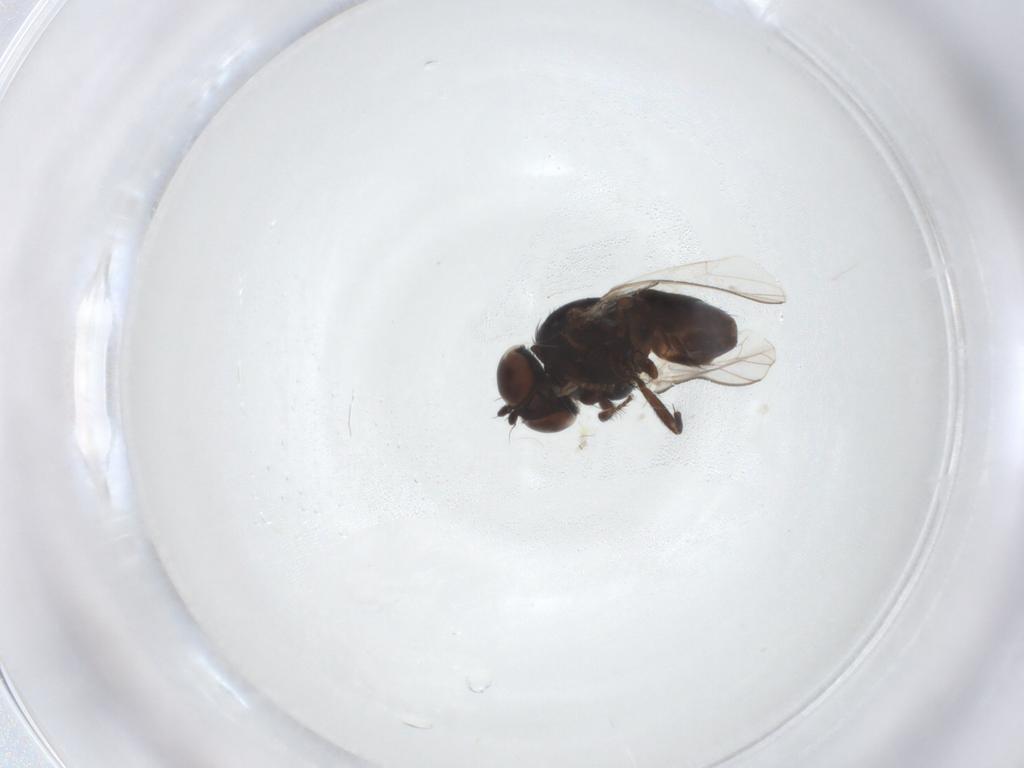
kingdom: Animalia
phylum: Arthropoda
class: Insecta
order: Diptera
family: Milichiidae
